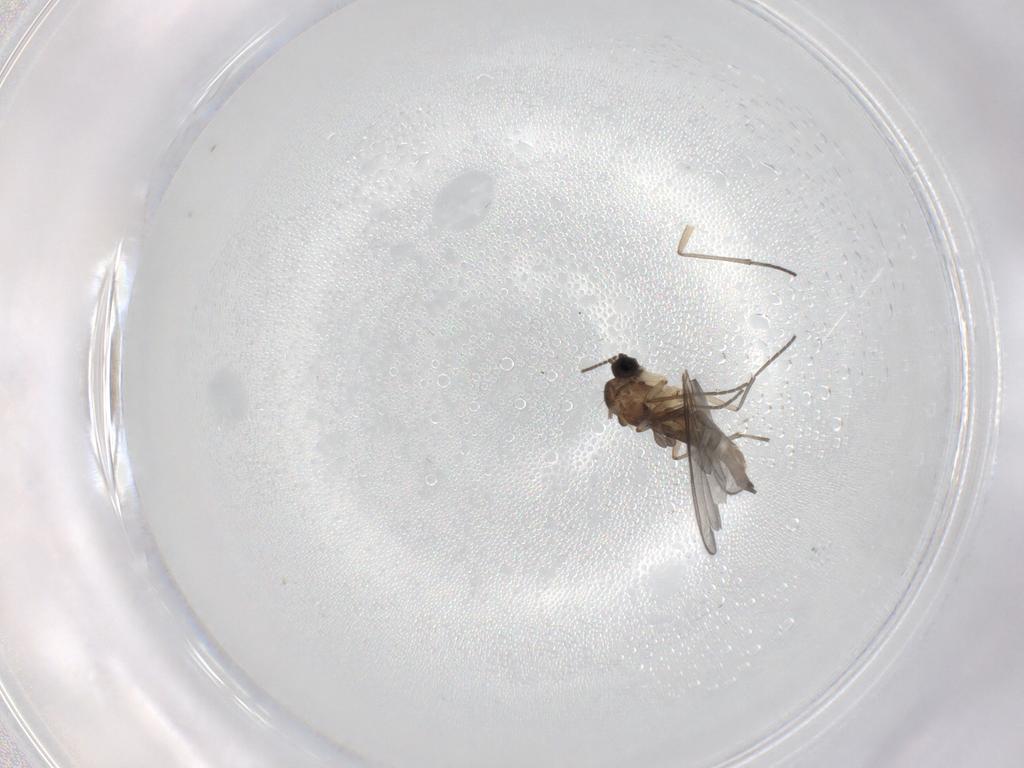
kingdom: Animalia
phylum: Arthropoda
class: Insecta
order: Diptera
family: Sciaridae
